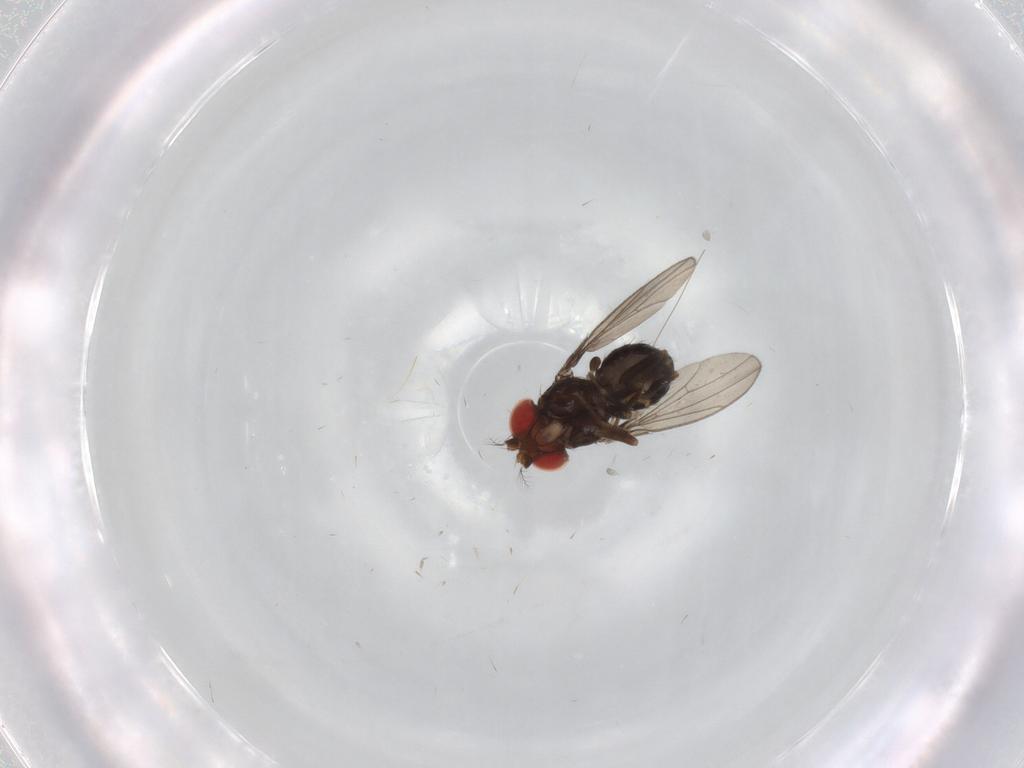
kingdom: Animalia
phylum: Arthropoda
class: Insecta
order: Diptera
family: Drosophilidae
